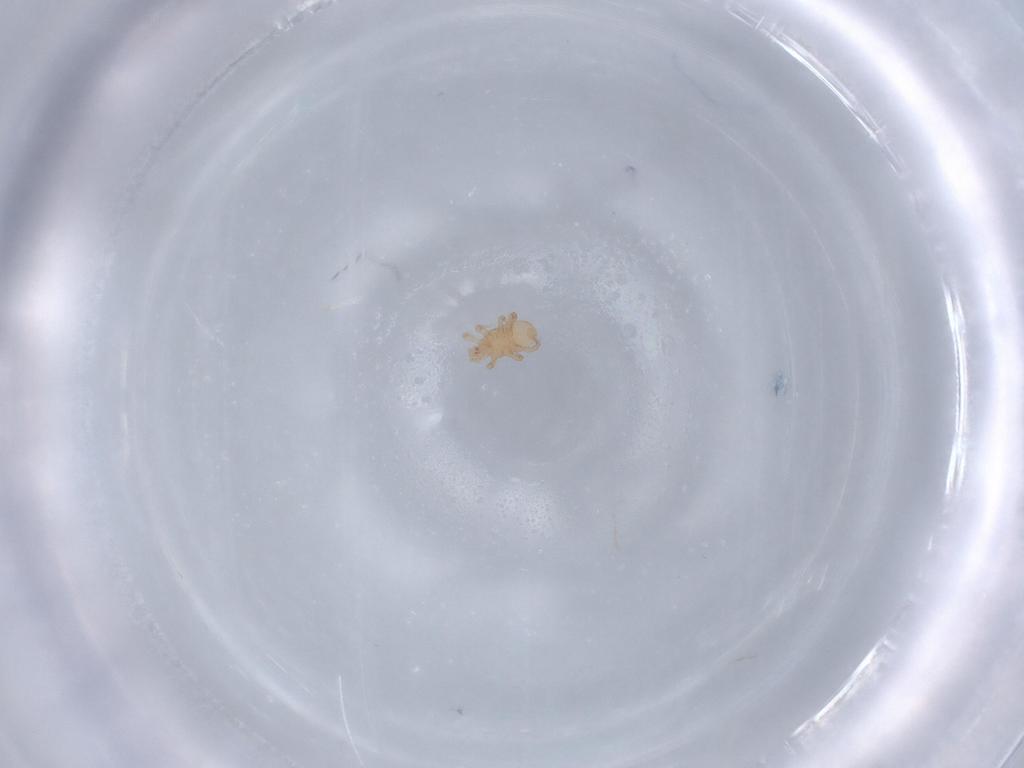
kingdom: Animalia
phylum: Arthropoda
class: Arachnida
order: Mesostigmata
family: Halolaelapidae
